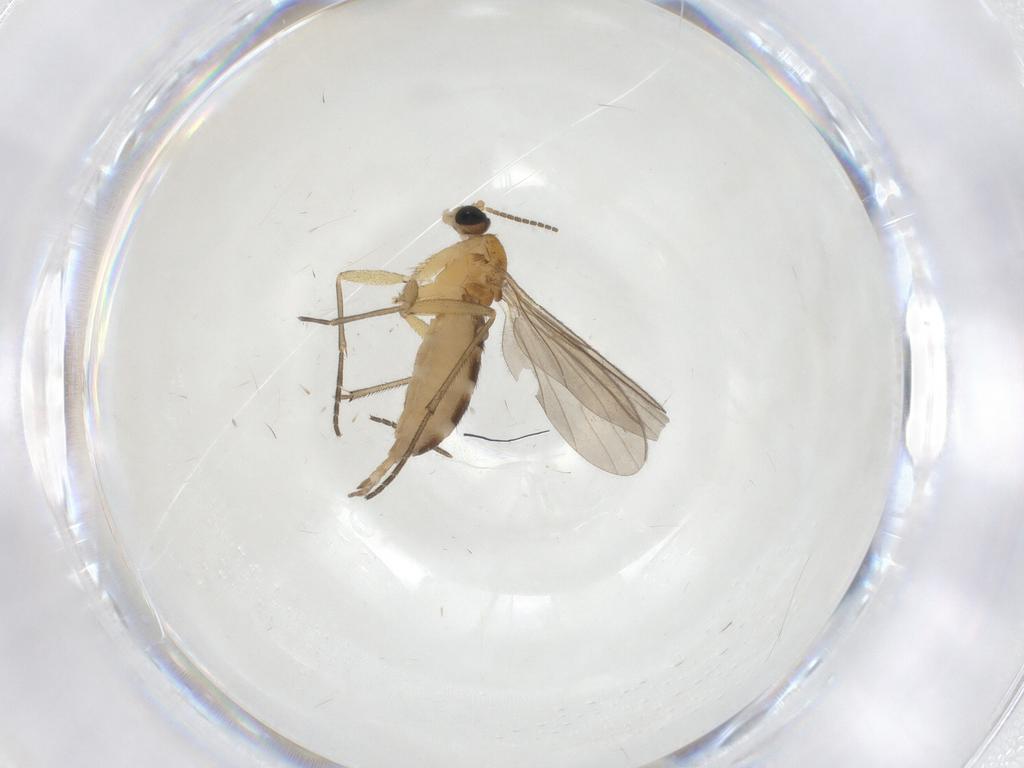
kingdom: Animalia
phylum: Arthropoda
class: Insecta
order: Diptera
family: Sciaridae
